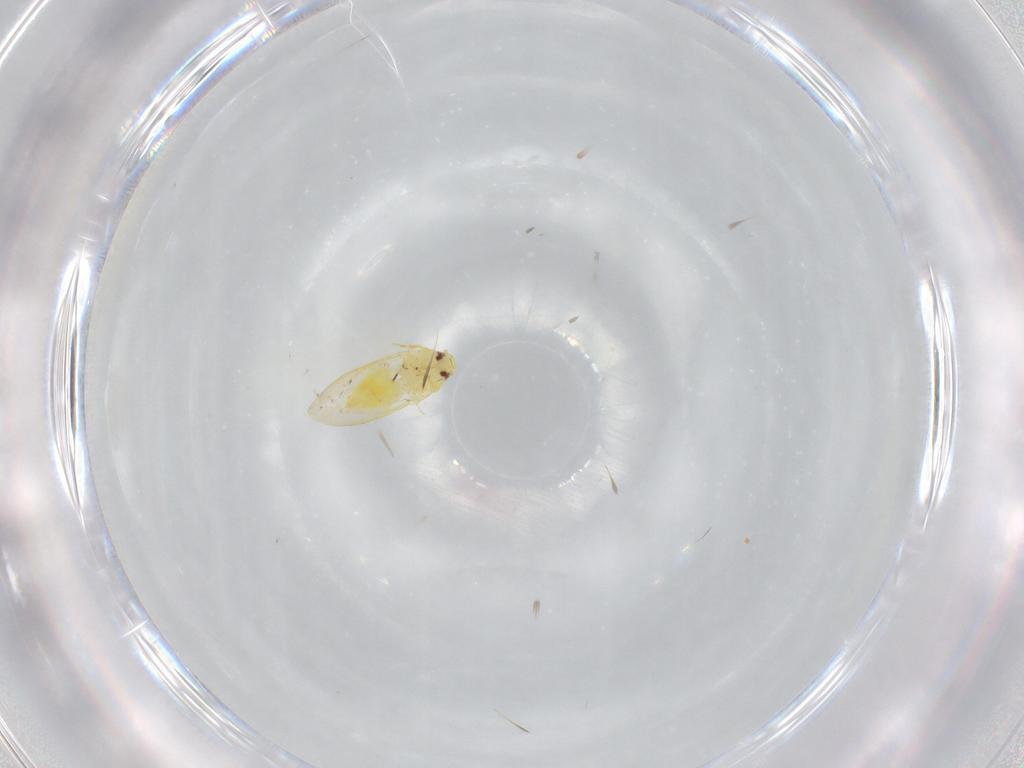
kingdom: Animalia
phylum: Arthropoda
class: Insecta
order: Hemiptera
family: Aleyrodidae
